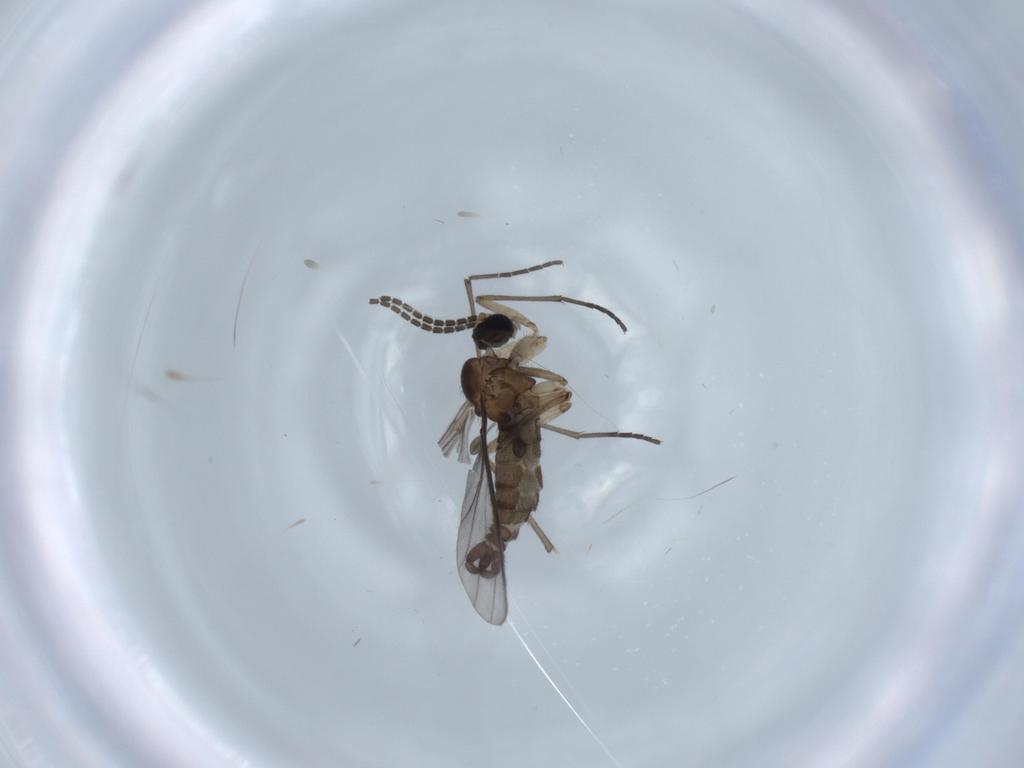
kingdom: Animalia
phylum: Arthropoda
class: Insecta
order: Diptera
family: Sciaridae
